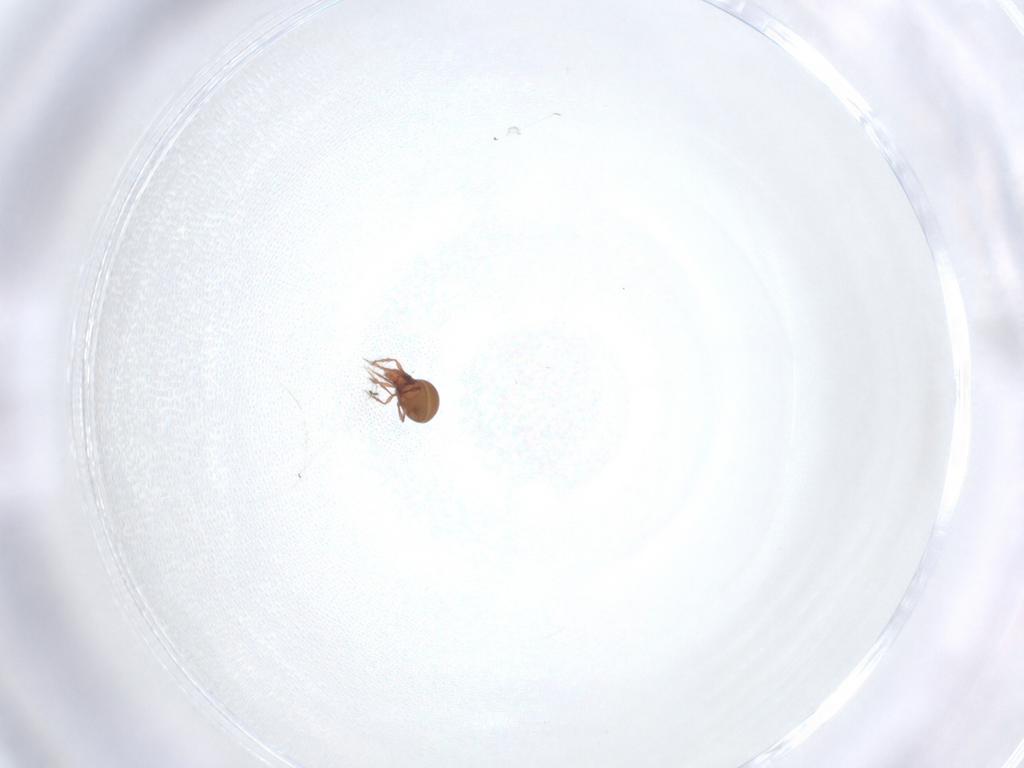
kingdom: Animalia
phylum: Arthropoda
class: Arachnida
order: Sarcoptiformes
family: Oppiidae
